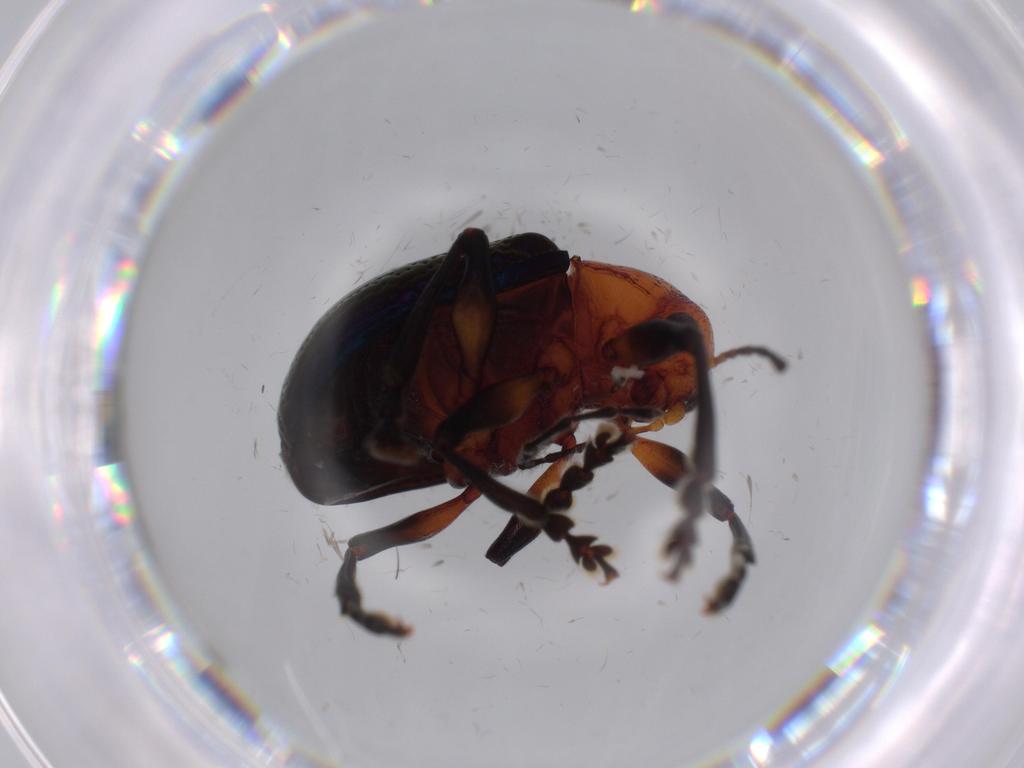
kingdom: Animalia
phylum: Arthropoda
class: Insecta
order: Coleoptera
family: Chrysomelidae
